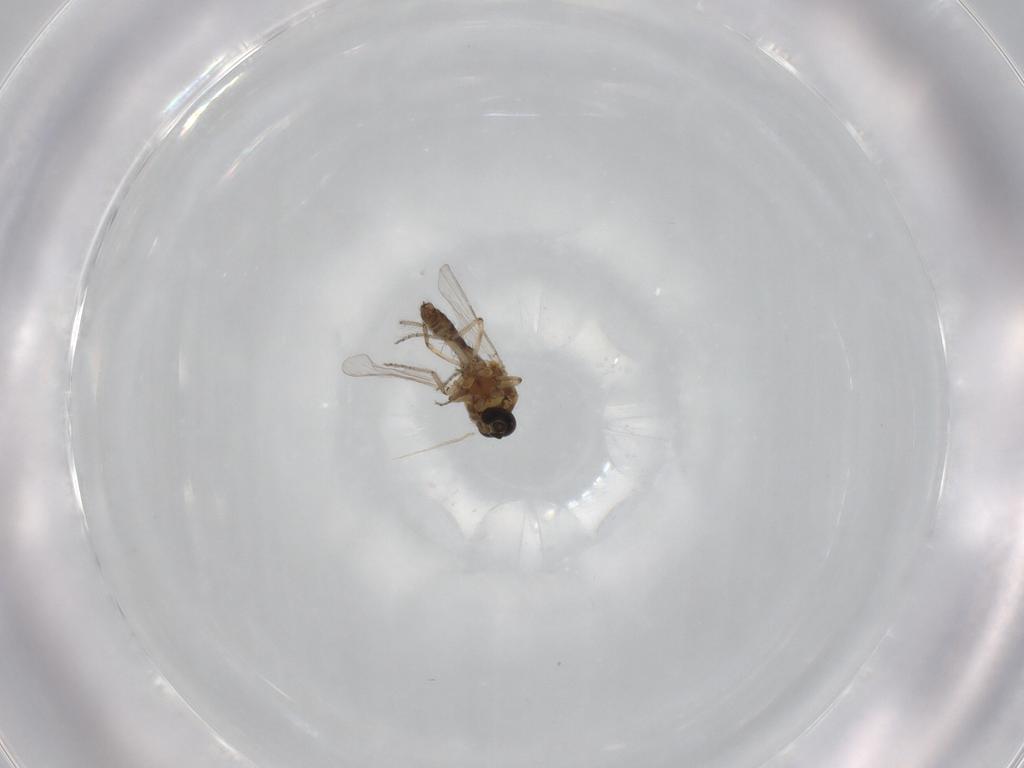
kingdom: Animalia
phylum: Arthropoda
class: Insecta
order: Diptera
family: Ceratopogonidae
